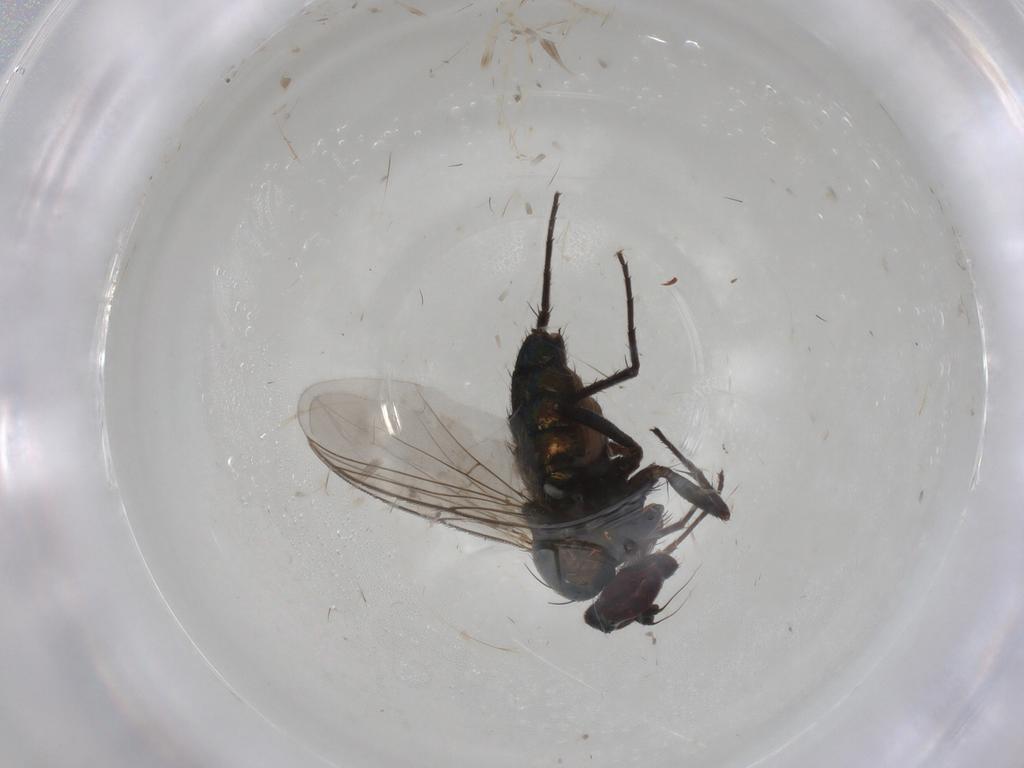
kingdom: Animalia
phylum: Arthropoda
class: Insecta
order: Diptera
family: Dolichopodidae
